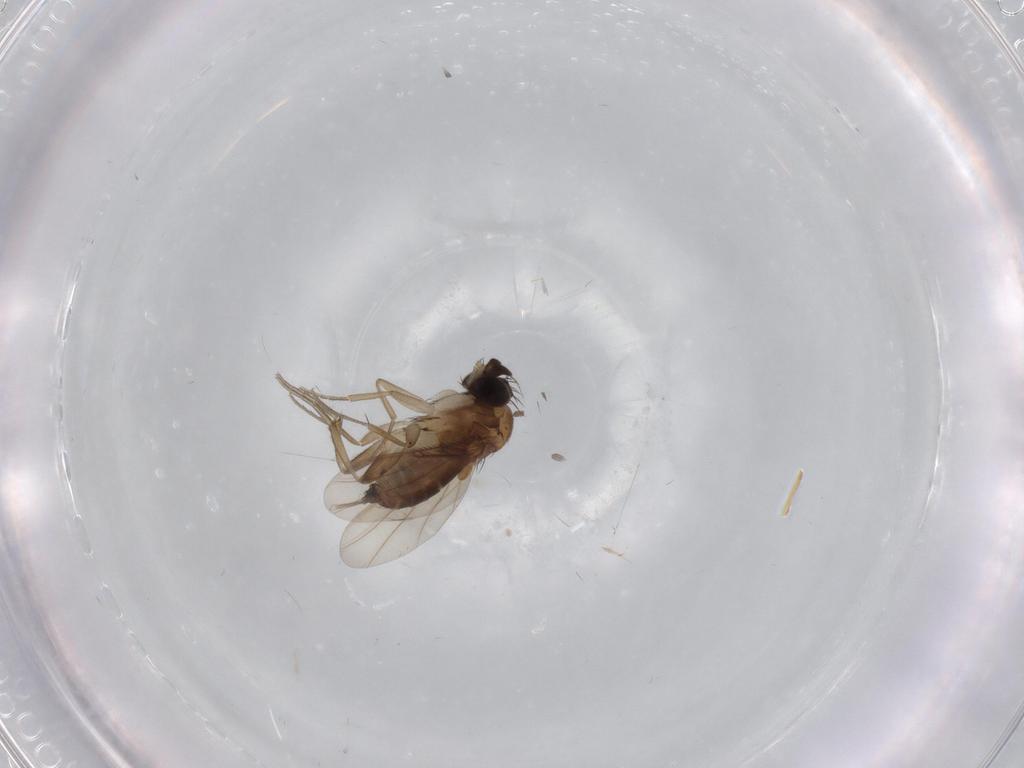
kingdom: Animalia
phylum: Arthropoda
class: Insecta
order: Diptera
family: Phoridae
